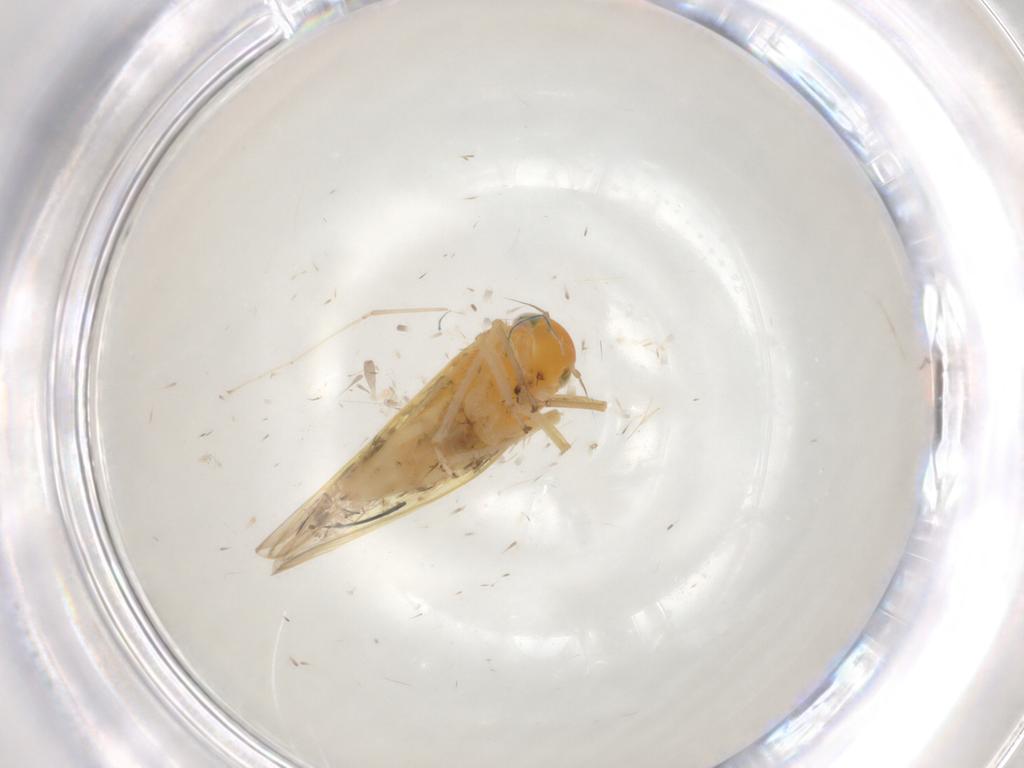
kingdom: Animalia
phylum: Arthropoda
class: Insecta
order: Hemiptera
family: Cicadellidae
